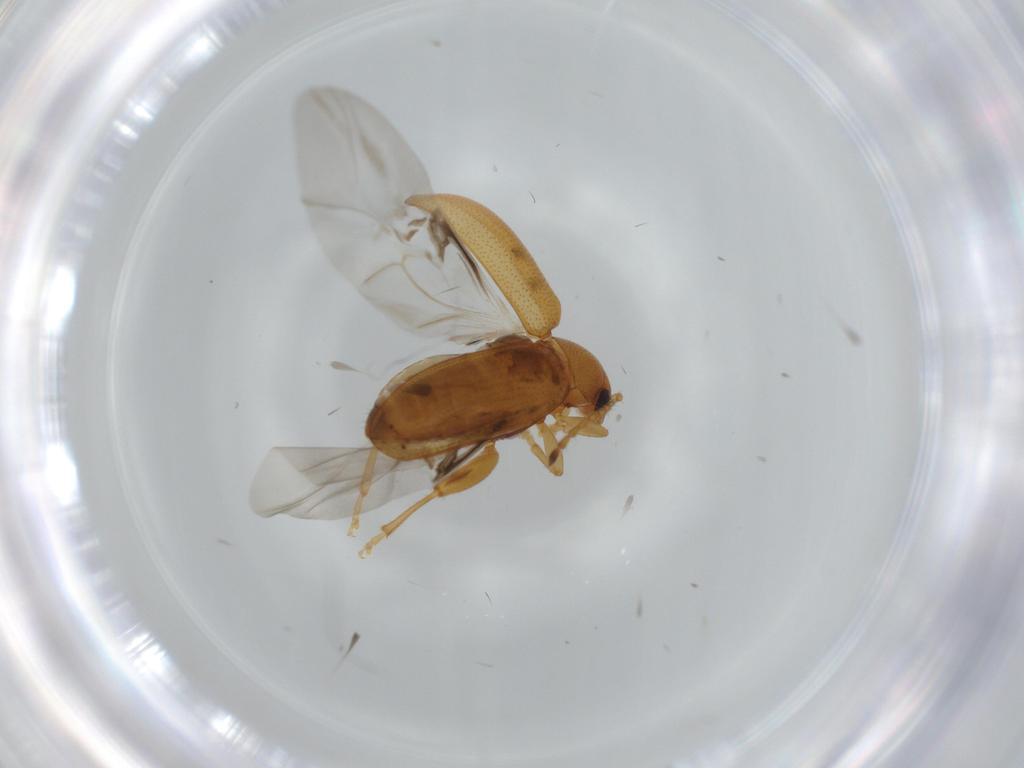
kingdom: Animalia
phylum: Arthropoda
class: Insecta
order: Coleoptera
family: Chrysomelidae
